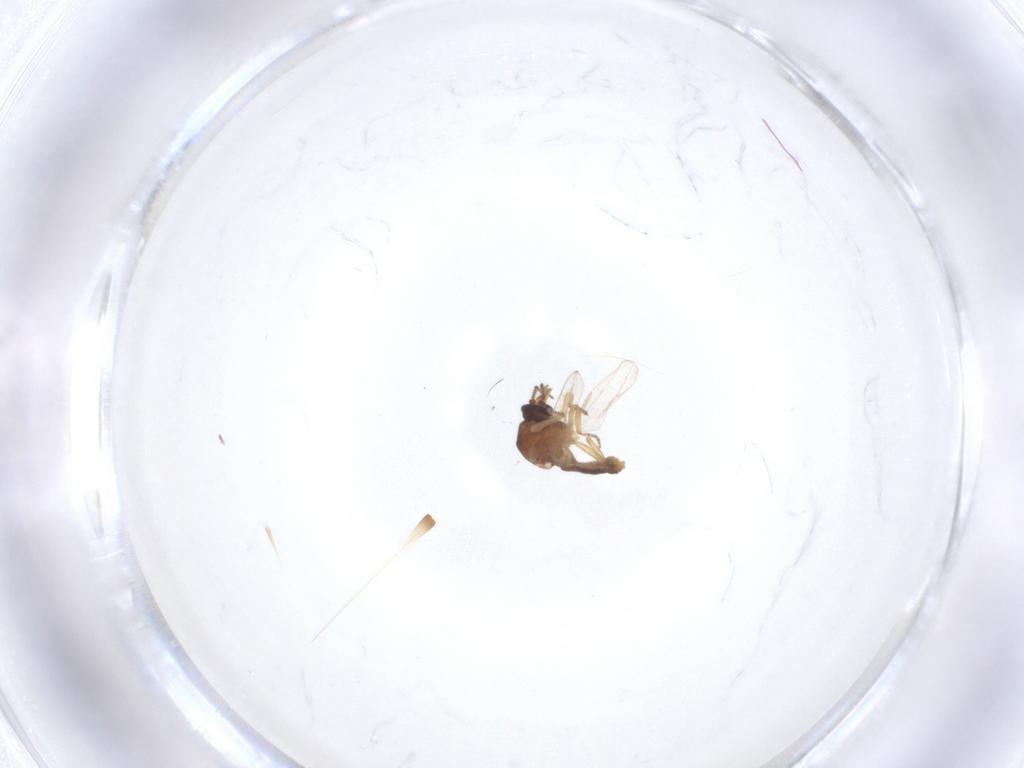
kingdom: Animalia
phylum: Arthropoda
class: Insecta
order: Diptera
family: Ceratopogonidae
